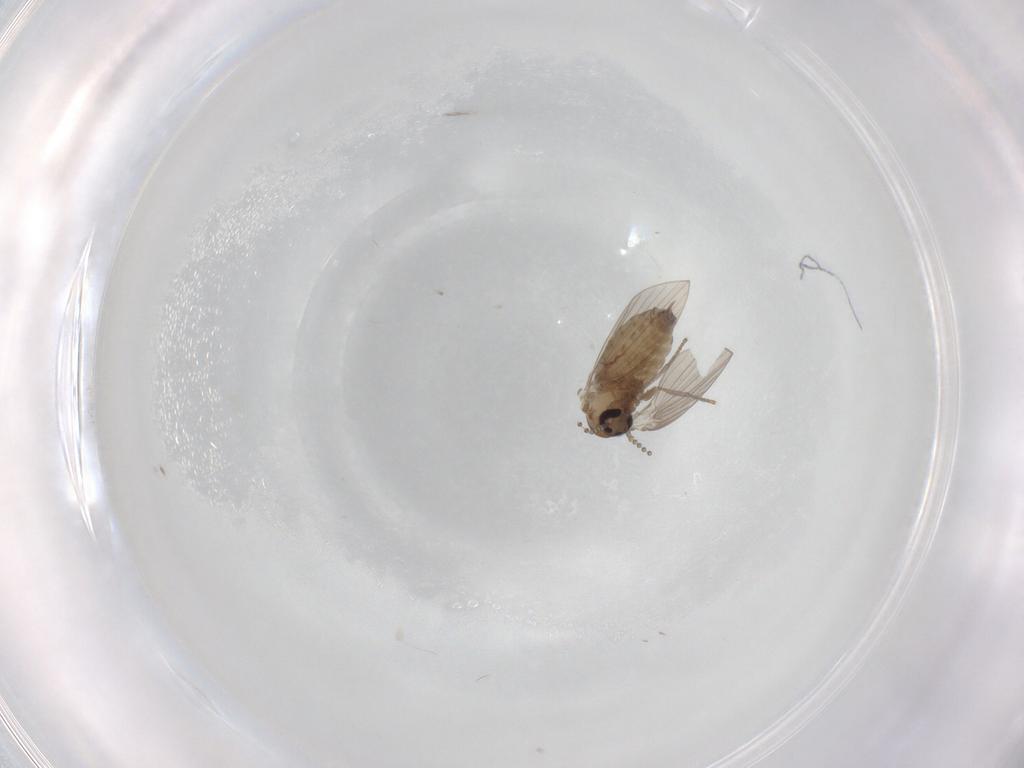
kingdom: Animalia
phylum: Arthropoda
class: Insecta
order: Diptera
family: Psychodidae
